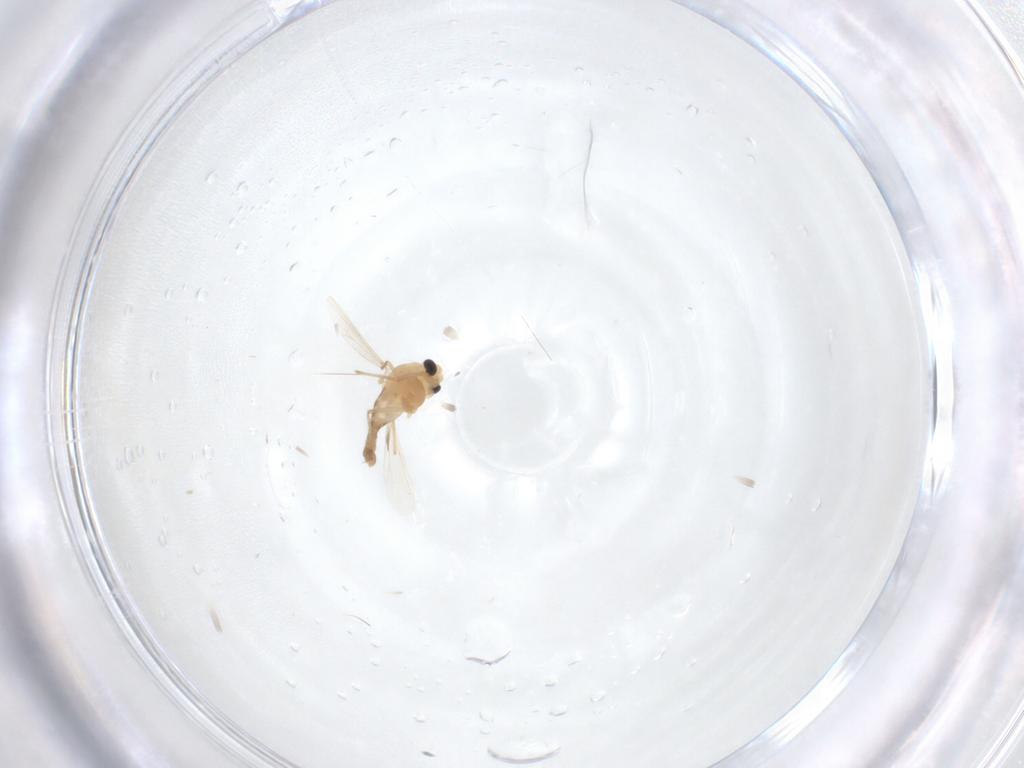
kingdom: Animalia
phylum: Arthropoda
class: Insecta
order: Diptera
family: Chironomidae
